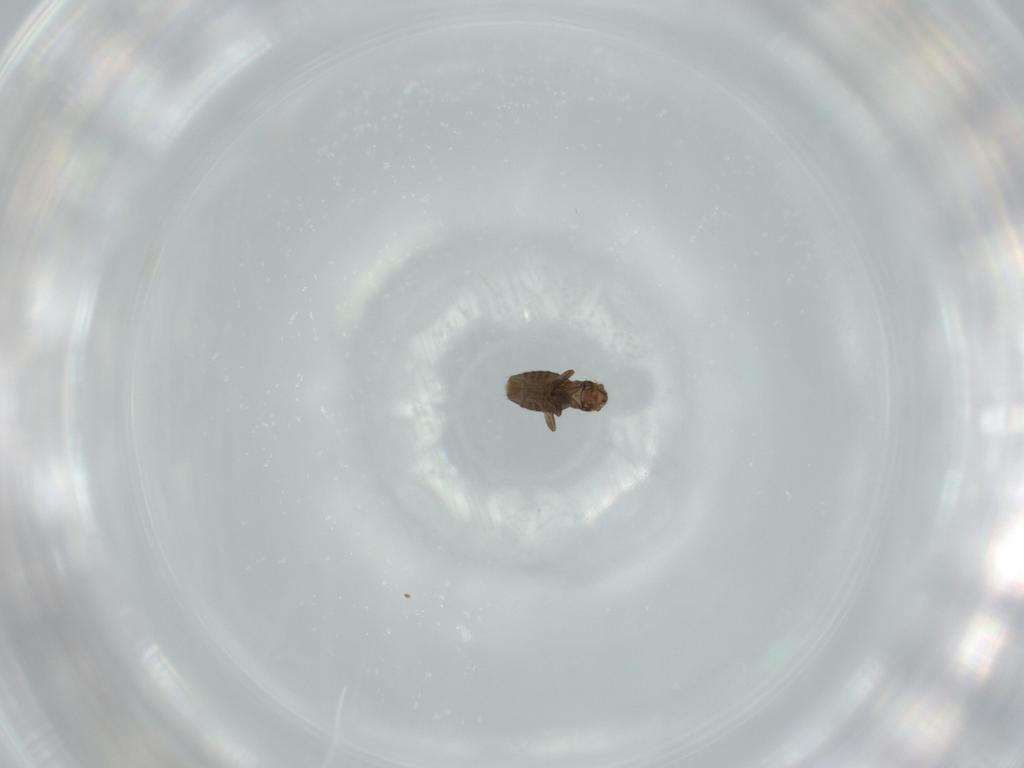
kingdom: Animalia
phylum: Arthropoda
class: Insecta
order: Diptera
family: Phoridae
